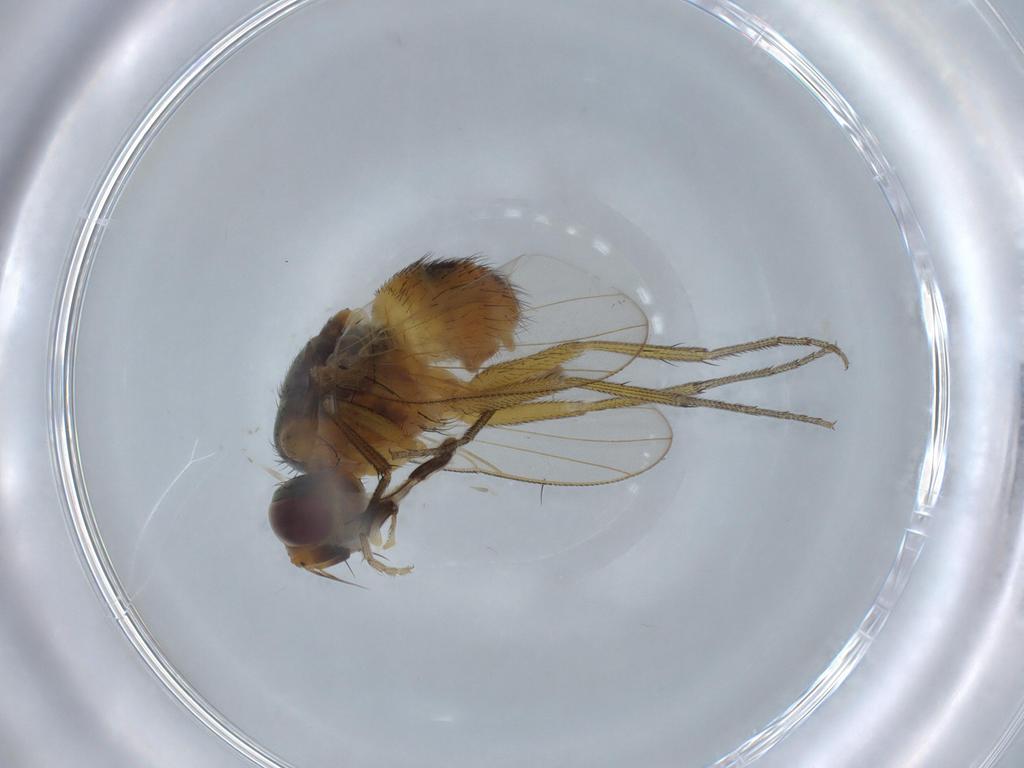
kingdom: Animalia
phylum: Arthropoda
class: Insecta
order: Diptera
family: Muscidae
